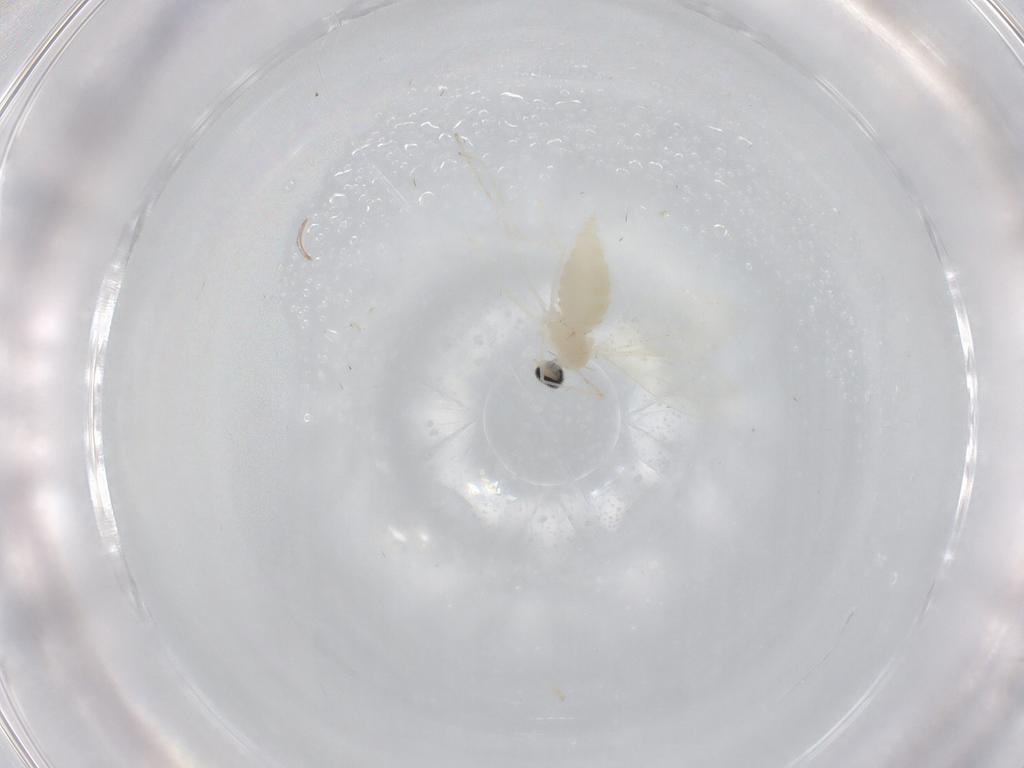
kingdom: Animalia
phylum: Arthropoda
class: Insecta
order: Diptera
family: Cecidomyiidae
